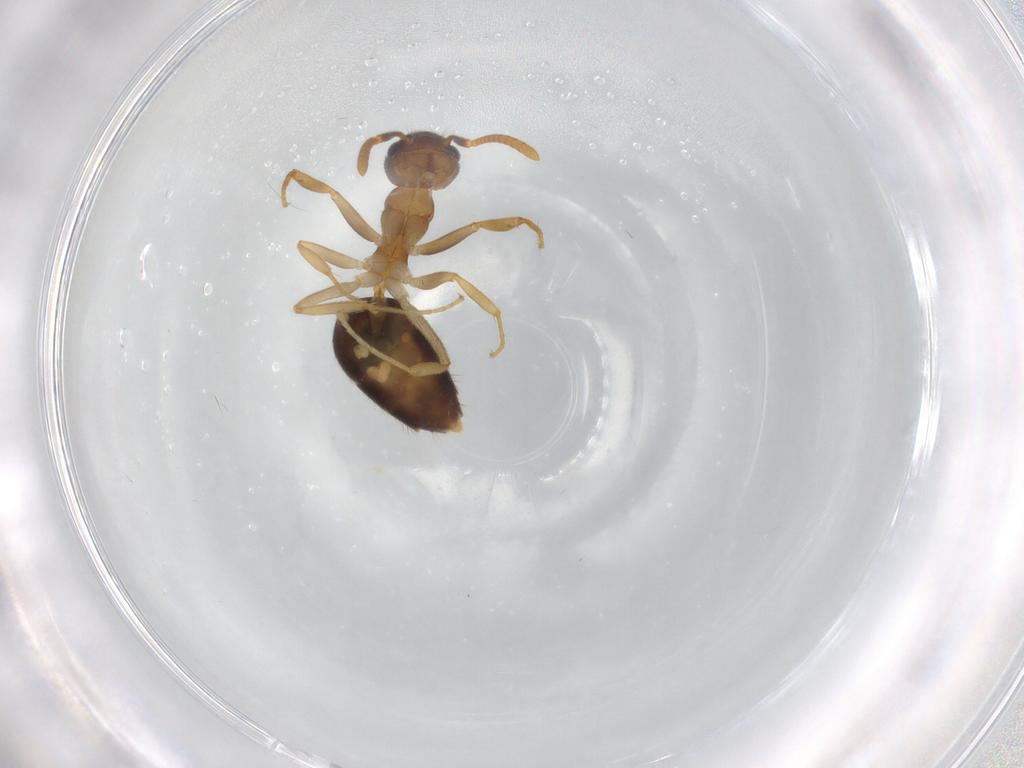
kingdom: Animalia
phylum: Arthropoda
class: Insecta
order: Hymenoptera
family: Formicidae
